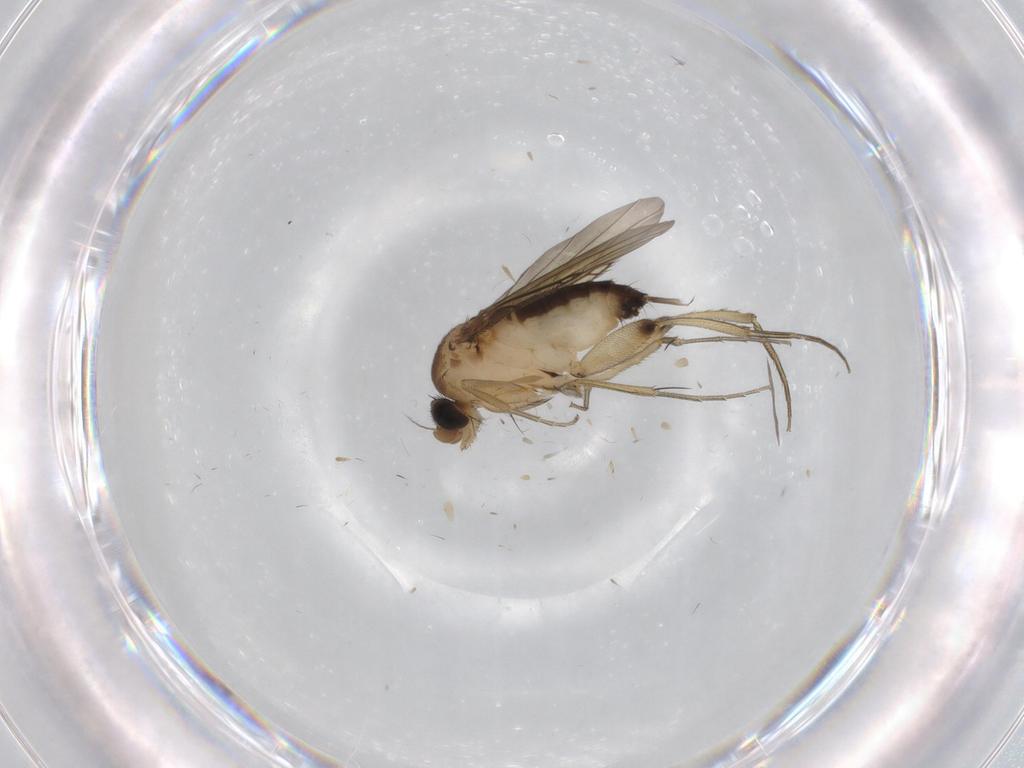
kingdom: Animalia
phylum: Arthropoda
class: Insecta
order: Diptera
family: Phoridae
